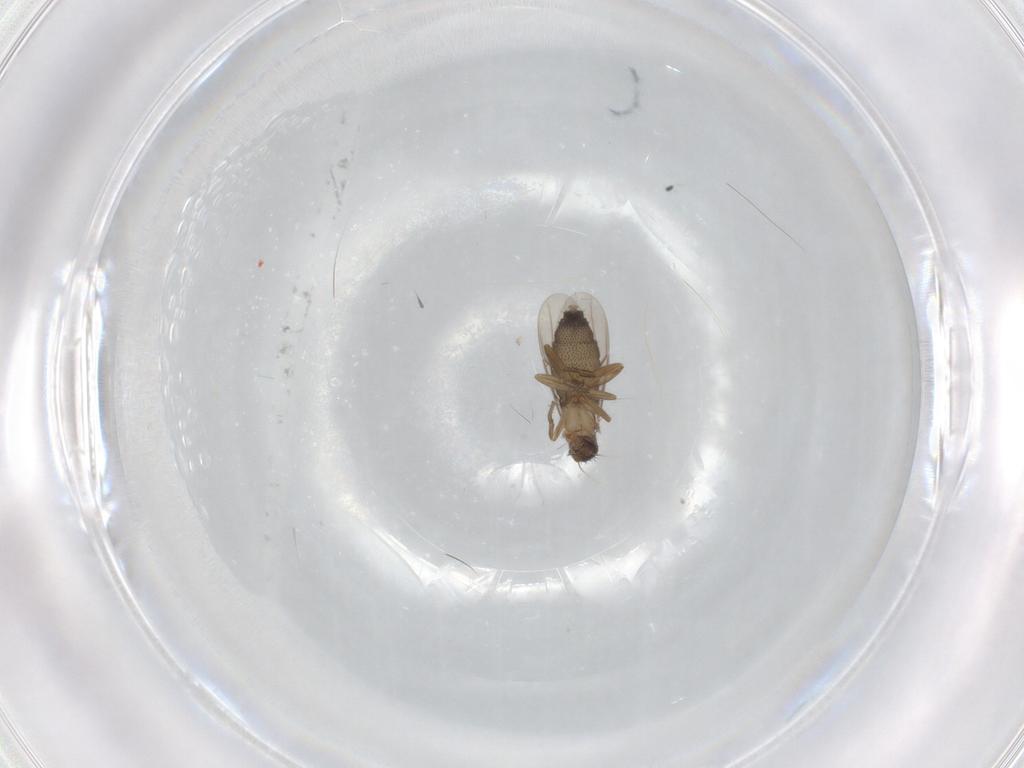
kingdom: Animalia
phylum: Arthropoda
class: Insecta
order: Diptera
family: Phoridae
